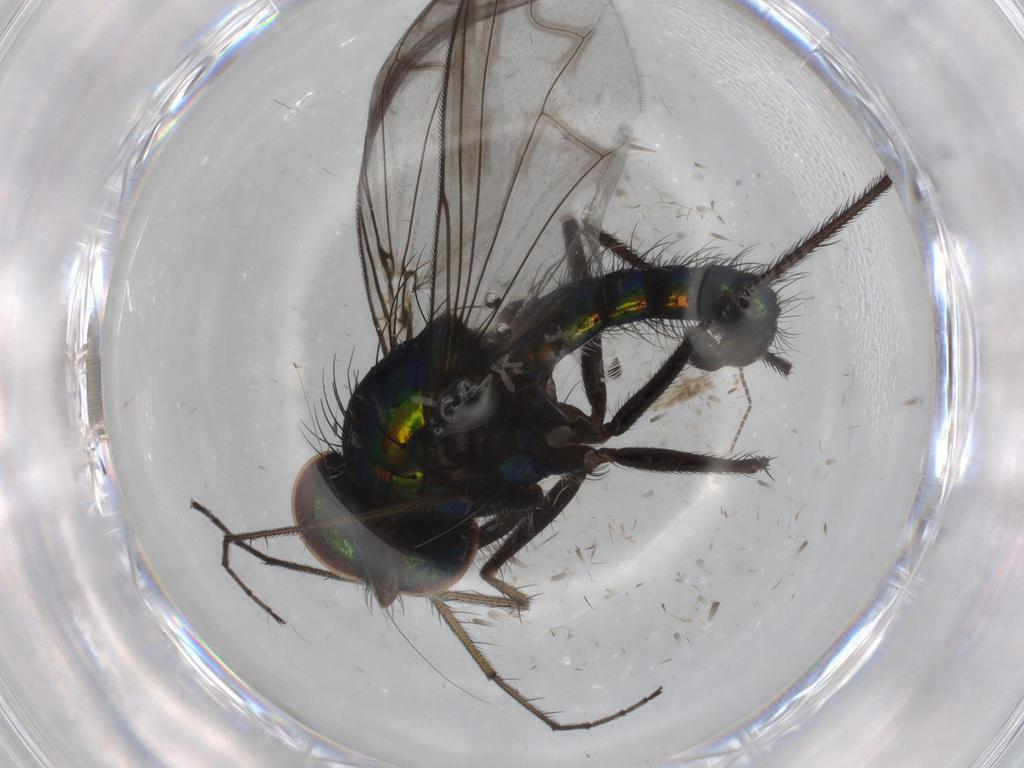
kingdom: Animalia
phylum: Arthropoda
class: Insecta
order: Diptera
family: Cecidomyiidae
